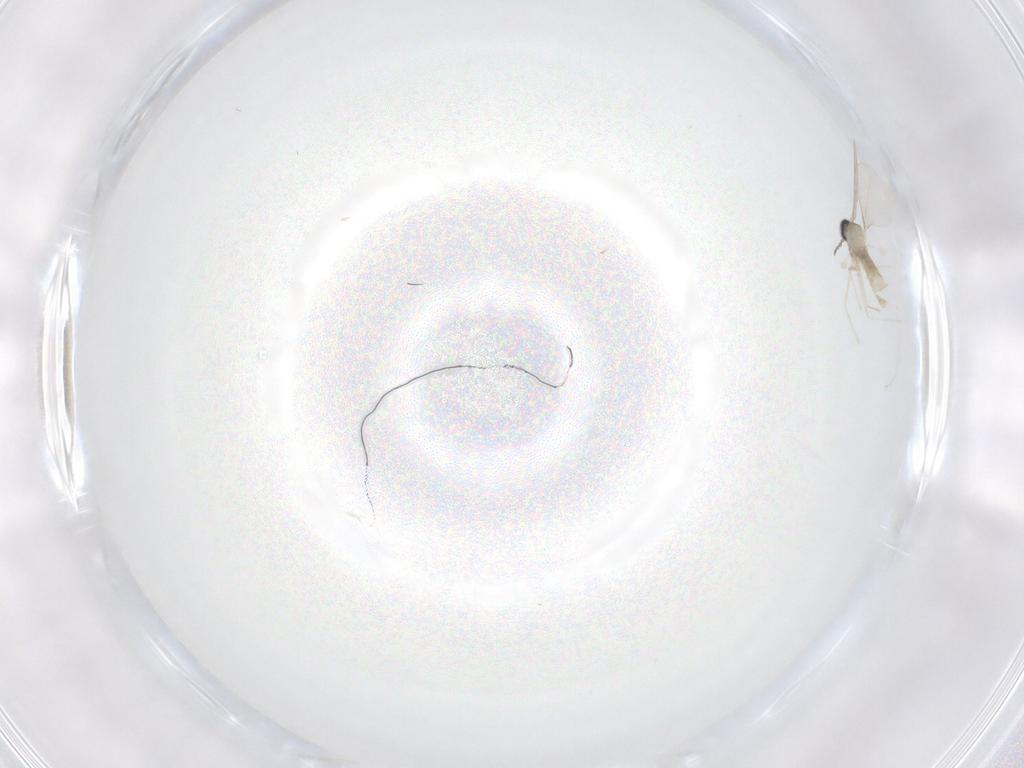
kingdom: Animalia
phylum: Arthropoda
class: Insecta
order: Diptera
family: Cecidomyiidae
